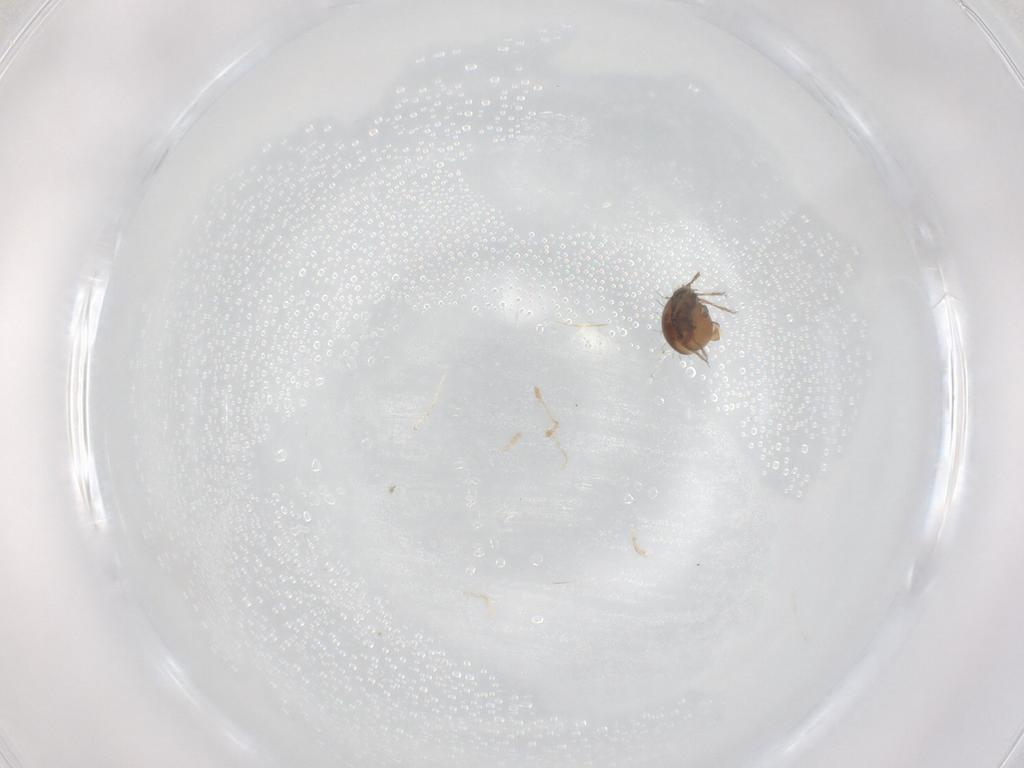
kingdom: Animalia
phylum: Arthropoda
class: Arachnida
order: Sarcoptiformes
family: Humerobatidae
